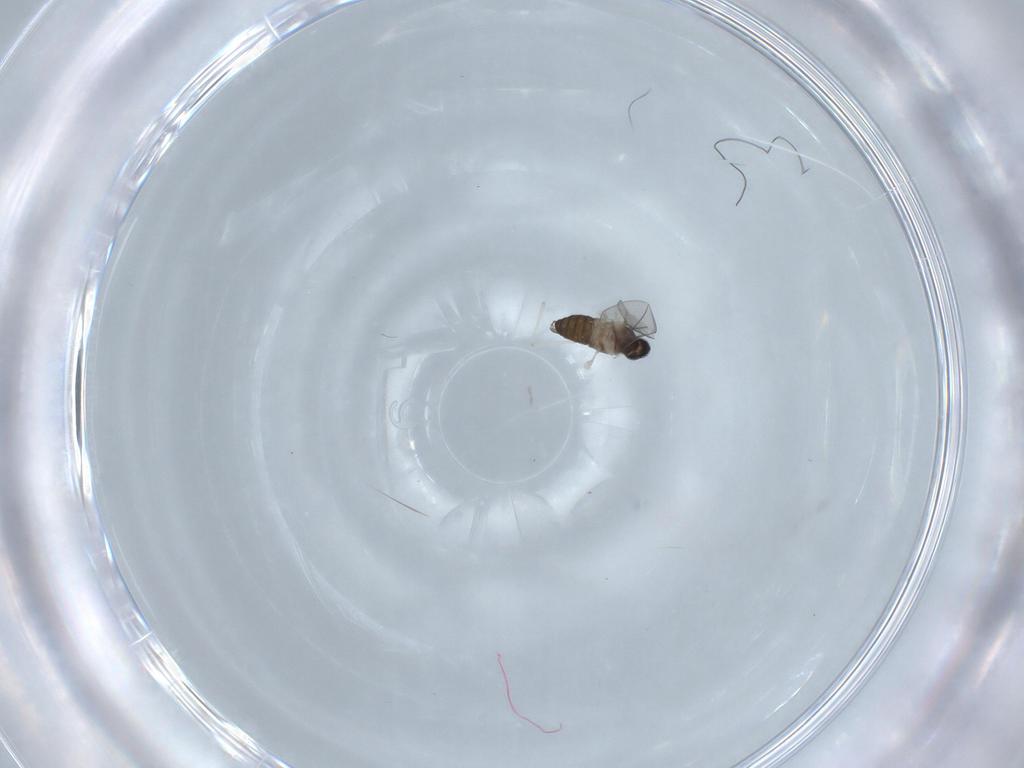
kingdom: Animalia
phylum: Arthropoda
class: Insecta
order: Diptera
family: Cecidomyiidae
